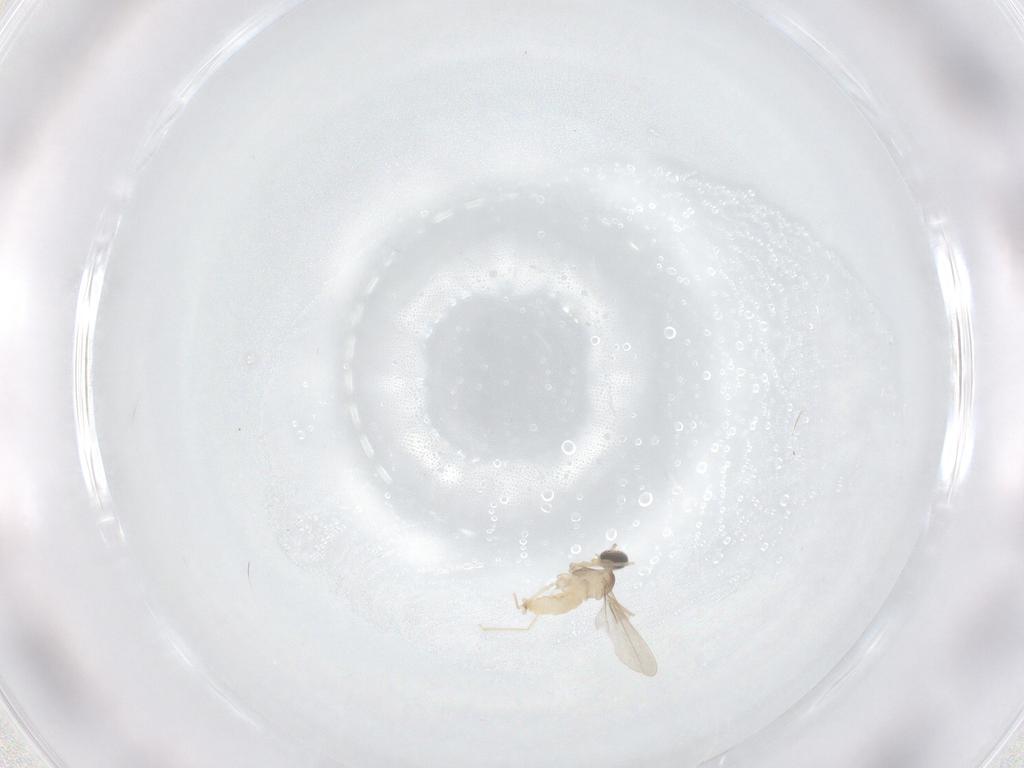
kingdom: Animalia
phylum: Arthropoda
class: Insecta
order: Diptera
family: Cecidomyiidae
